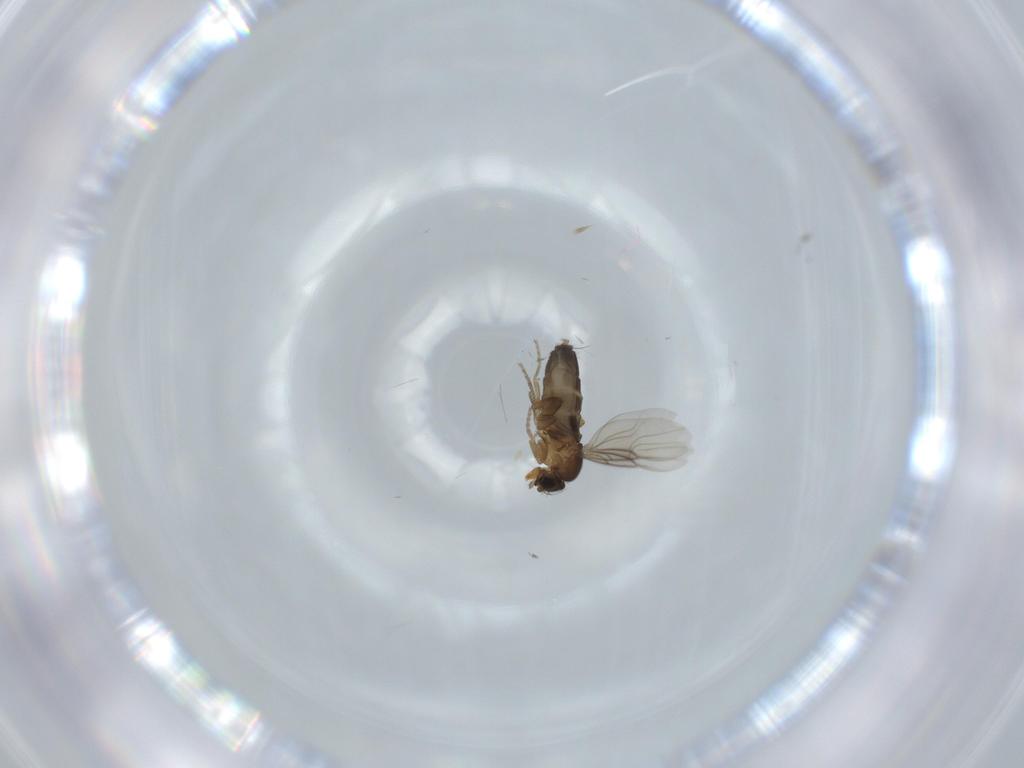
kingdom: Animalia
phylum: Arthropoda
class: Insecta
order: Diptera
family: Phoridae
